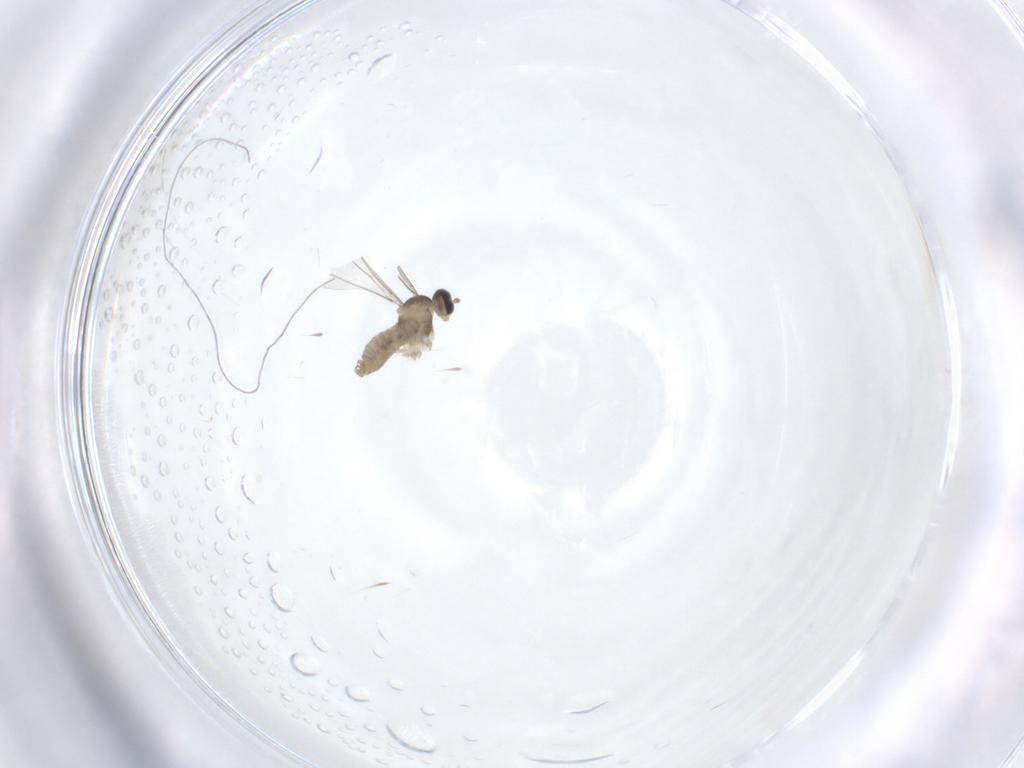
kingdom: Animalia
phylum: Arthropoda
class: Insecta
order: Diptera
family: Cecidomyiidae
